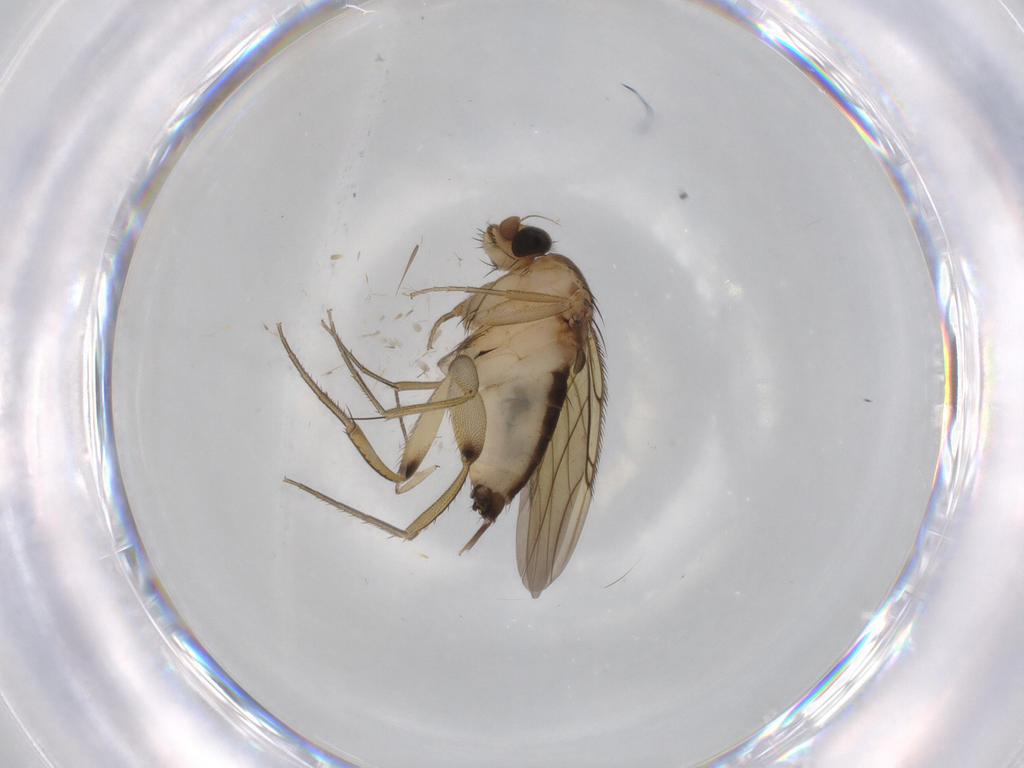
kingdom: Animalia
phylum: Arthropoda
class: Insecta
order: Diptera
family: Phoridae
